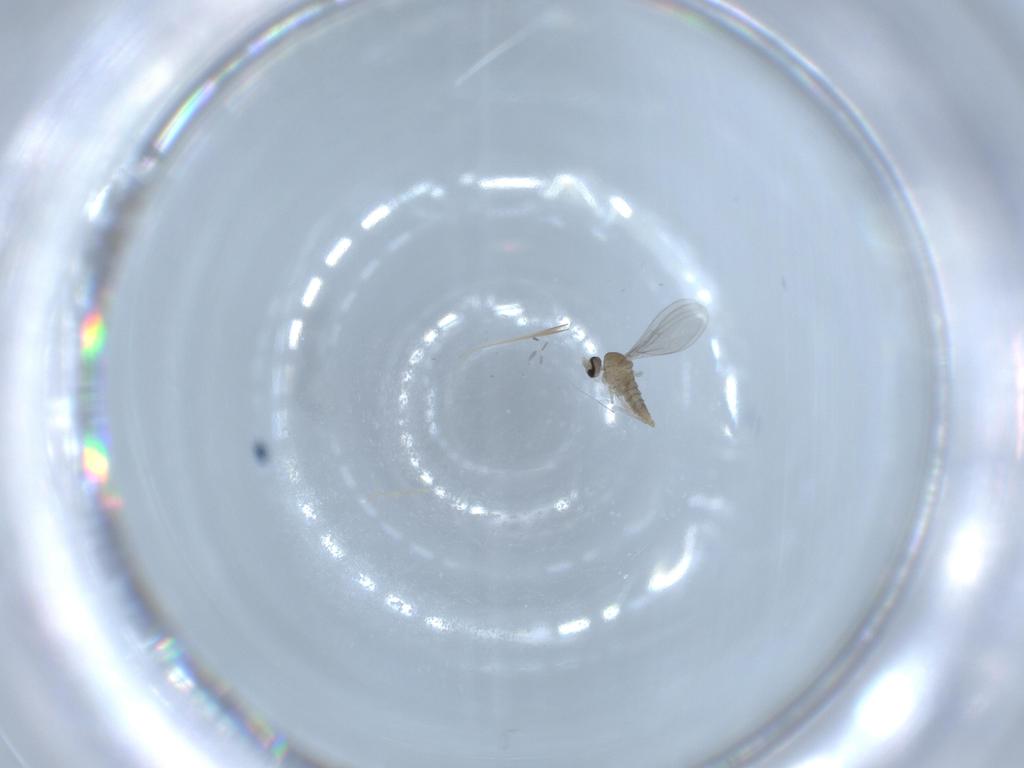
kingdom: Animalia
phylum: Arthropoda
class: Insecta
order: Diptera
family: Cecidomyiidae
